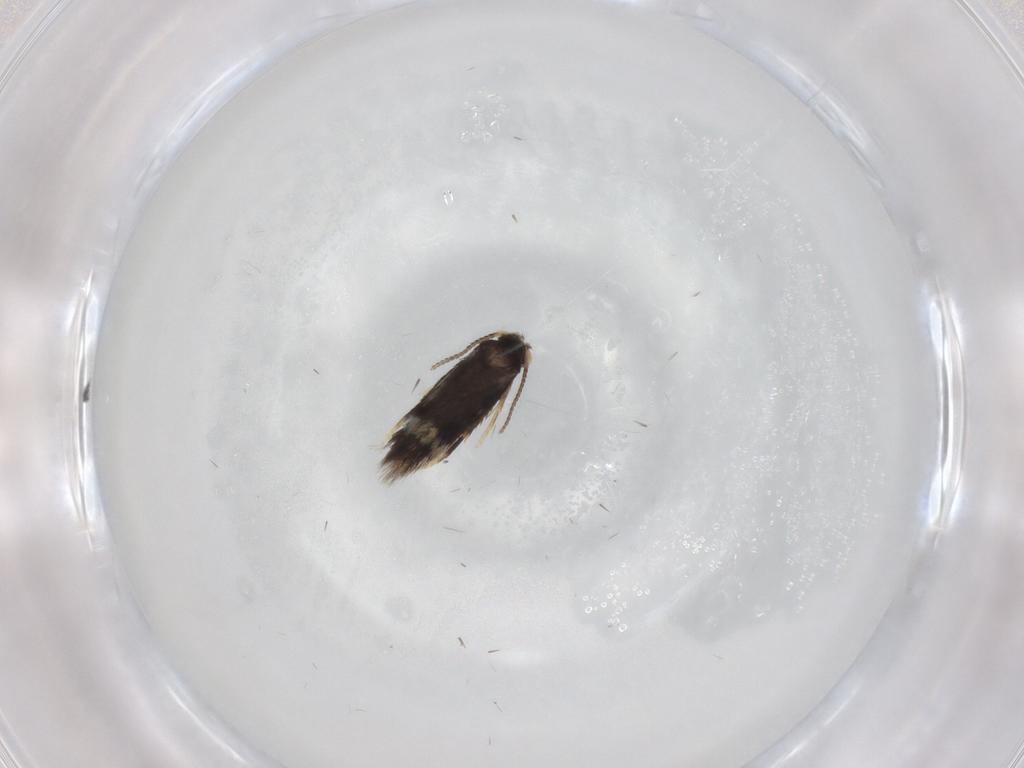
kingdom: Animalia
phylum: Arthropoda
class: Insecta
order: Lepidoptera
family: Nepticulidae
